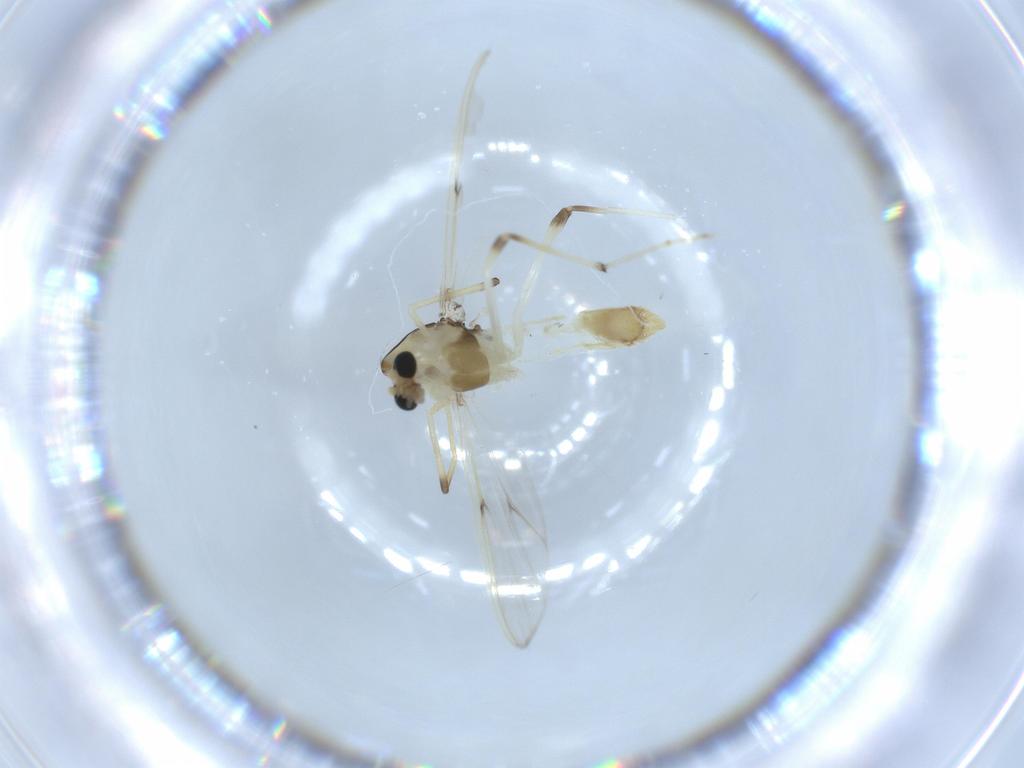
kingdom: Animalia
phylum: Arthropoda
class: Insecta
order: Diptera
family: Chironomidae
